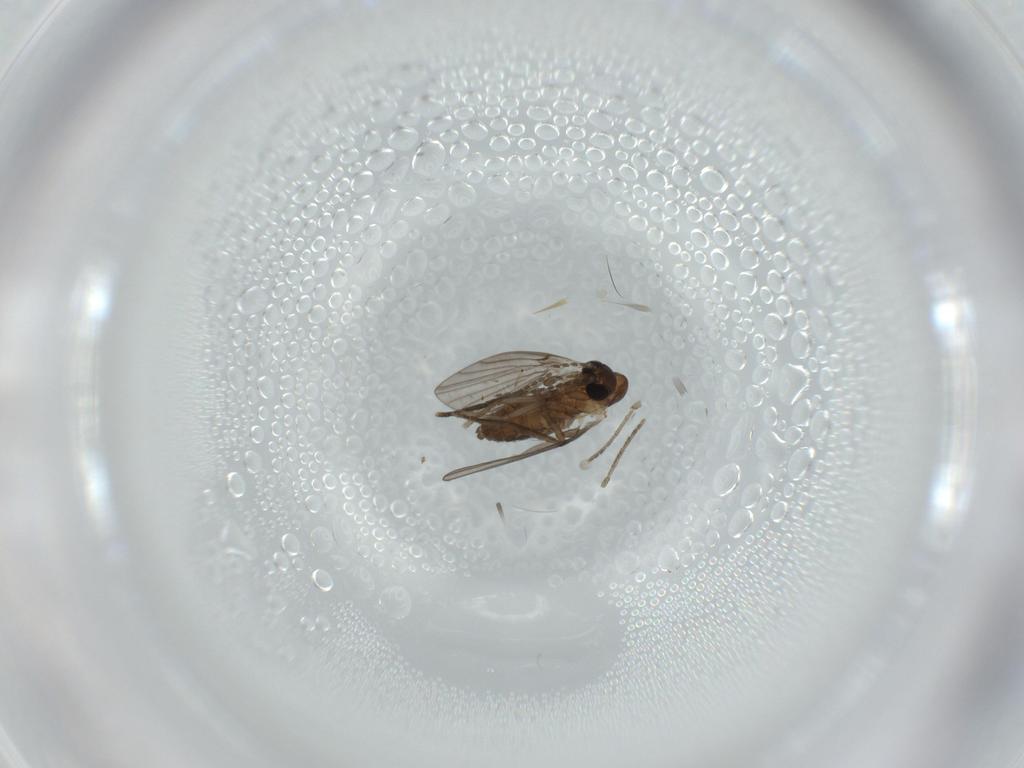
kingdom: Animalia
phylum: Arthropoda
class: Insecta
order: Diptera
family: Psychodidae
